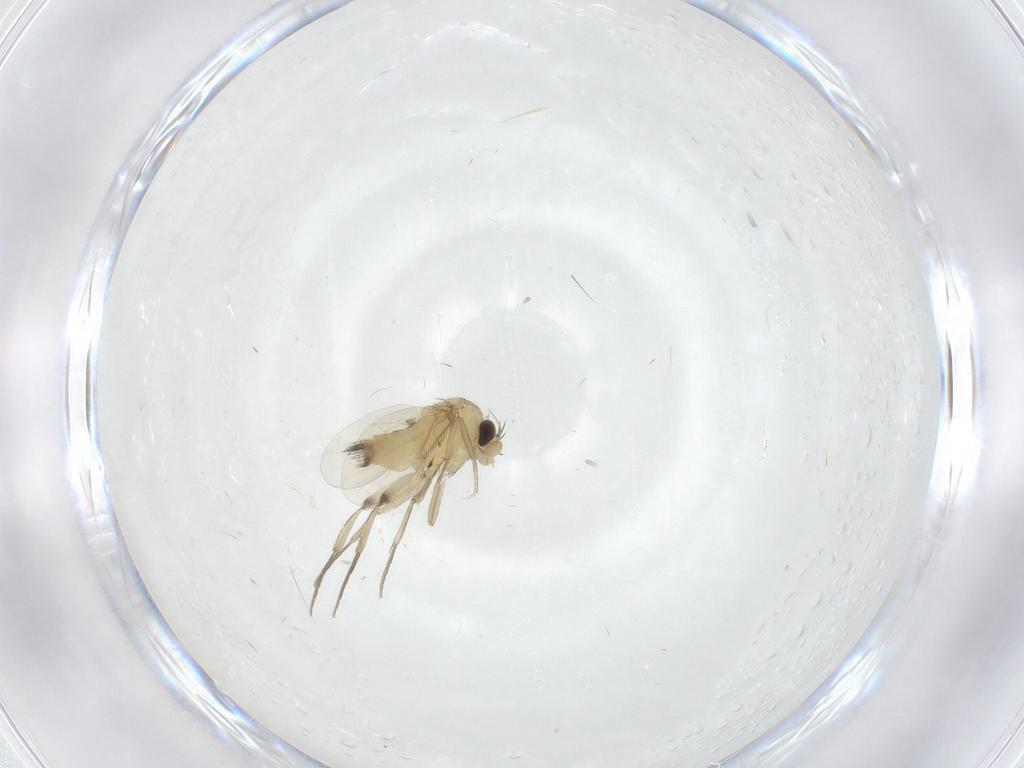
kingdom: Animalia
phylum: Arthropoda
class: Insecta
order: Diptera
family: Phoridae
